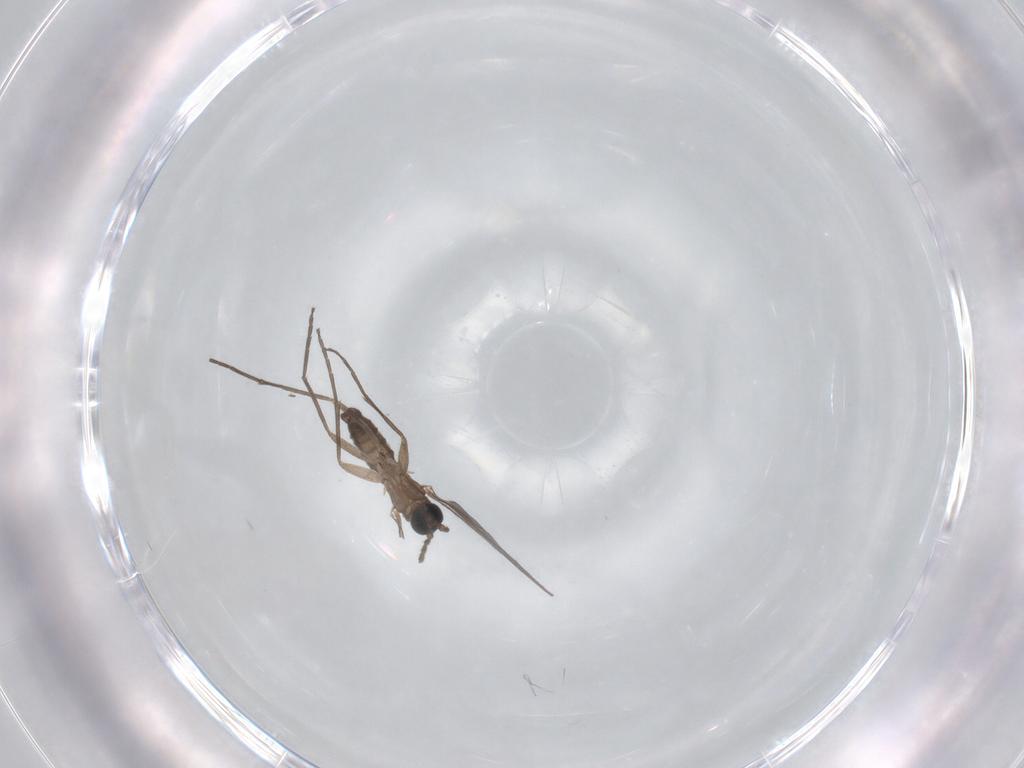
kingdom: Animalia
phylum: Arthropoda
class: Insecta
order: Diptera
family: Sciaridae
